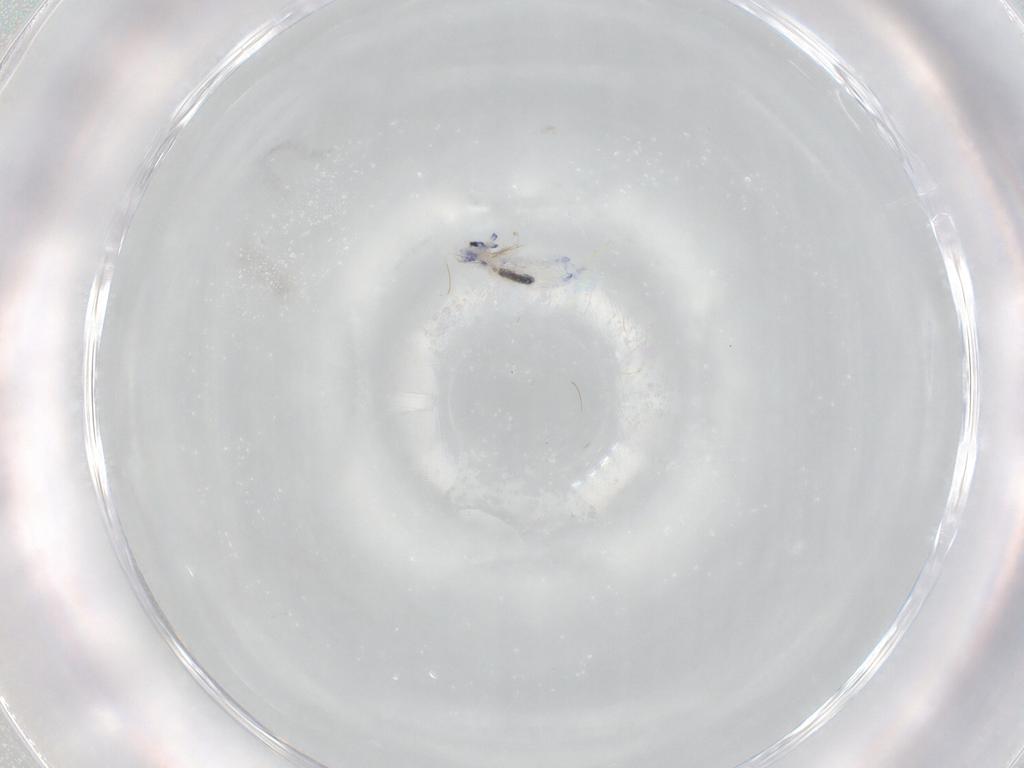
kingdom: Animalia
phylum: Arthropoda
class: Collembola
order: Entomobryomorpha
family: Entomobryidae
